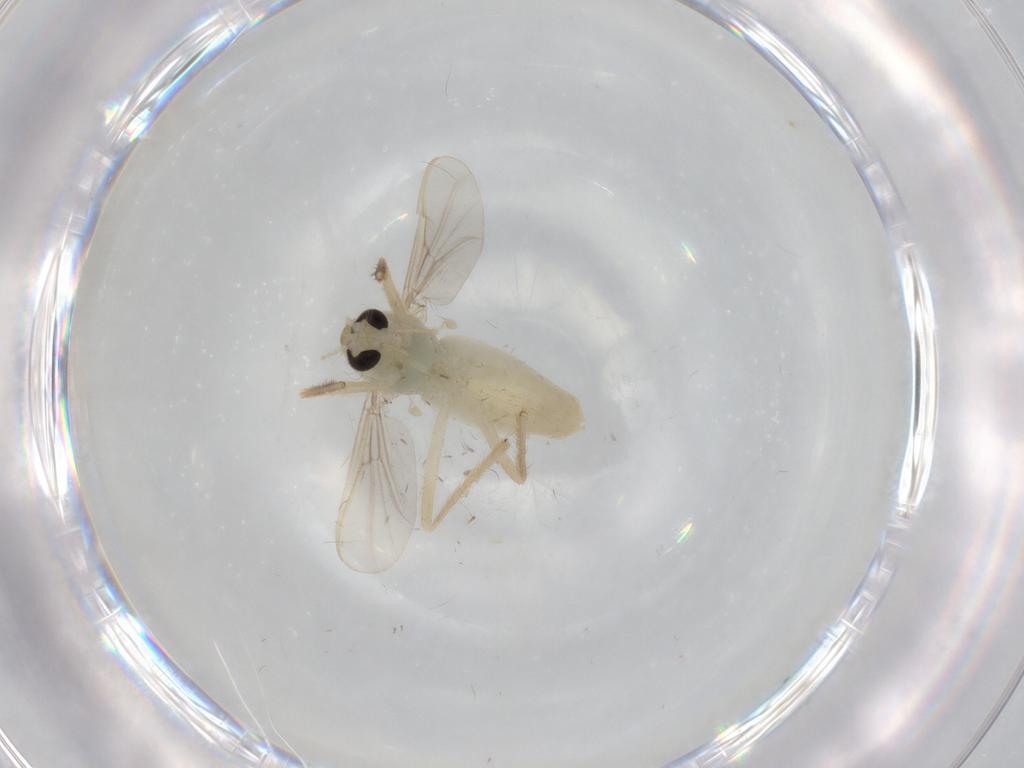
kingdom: Animalia
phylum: Arthropoda
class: Insecta
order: Diptera
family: Chironomidae
